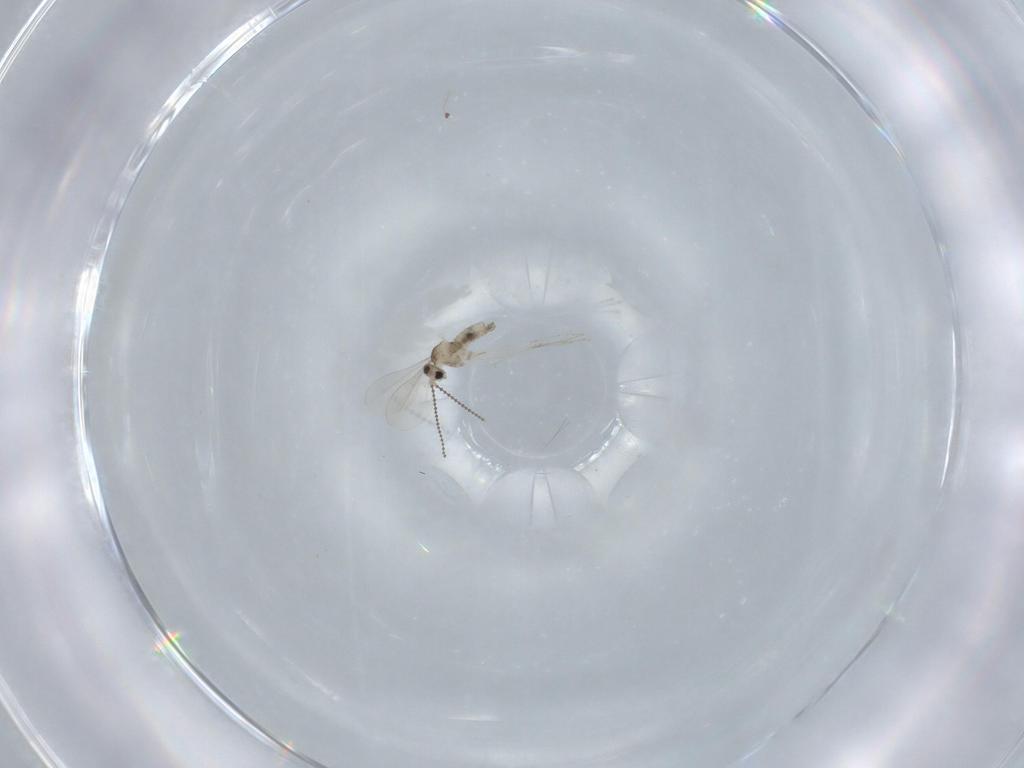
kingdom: Animalia
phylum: Arthropoda
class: Insecta
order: Diptera
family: Cecidomyiidae
